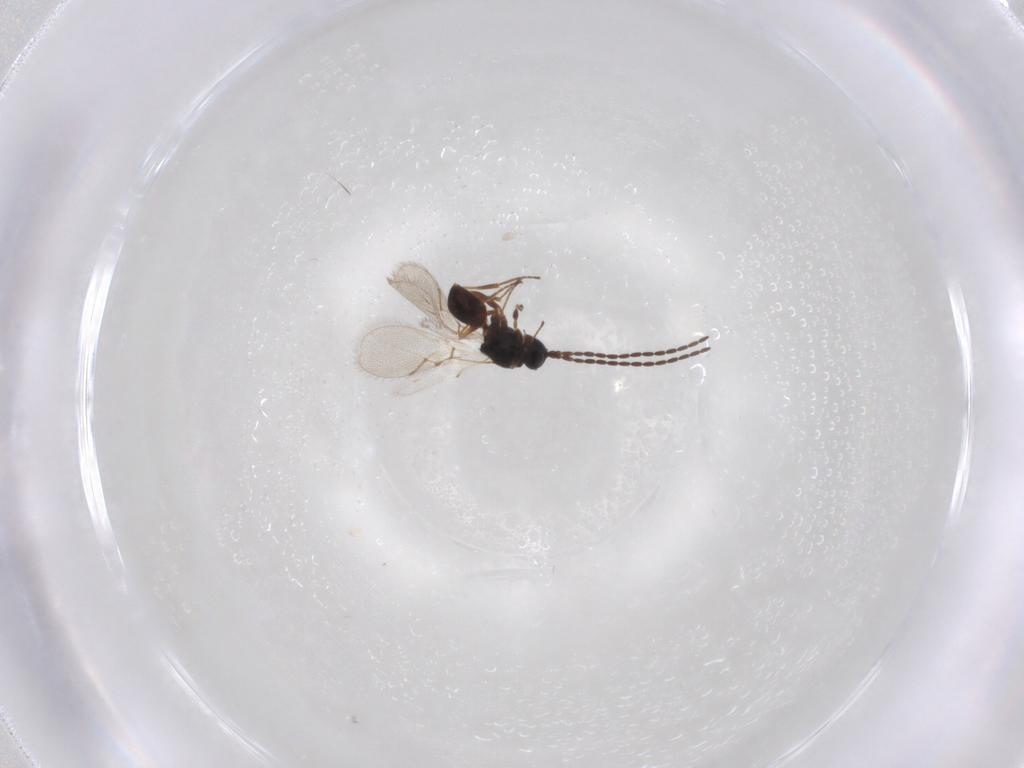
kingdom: Animalia
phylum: Arthropoda
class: Insecta
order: Hymenoptera
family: Figitidae
